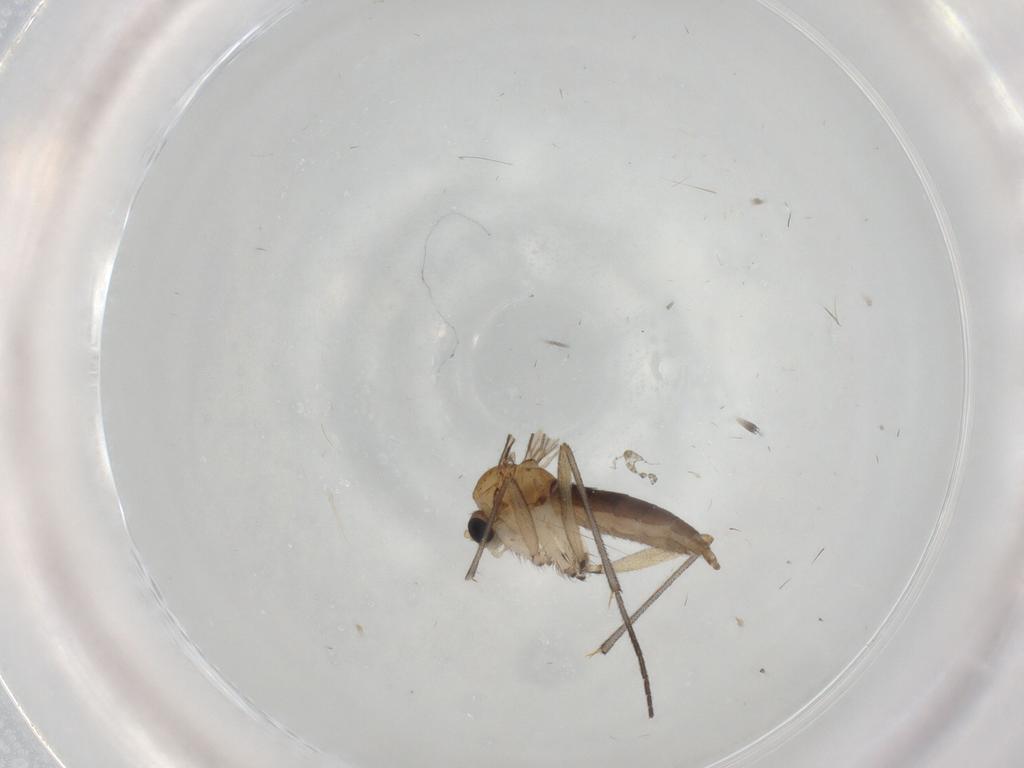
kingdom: Animalia
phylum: Arthropoda
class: Insecta
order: Diptera
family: Sciaridae
